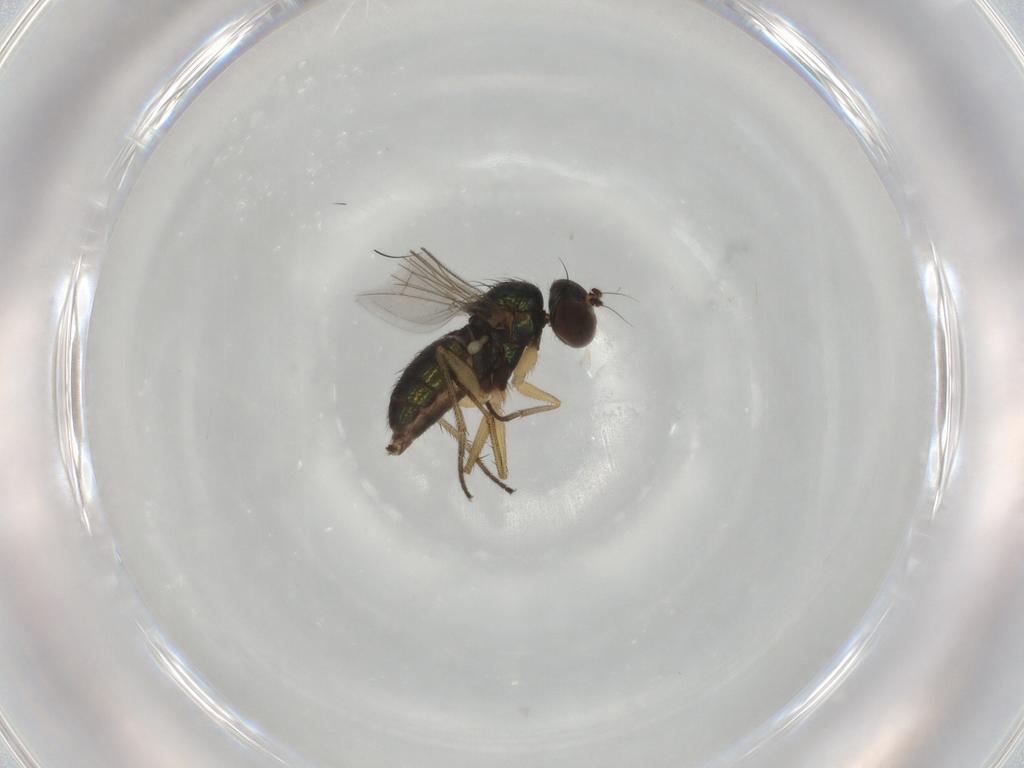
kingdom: Animalia
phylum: Arthropoda
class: Insecta
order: Diptera
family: Dolichopodidae
